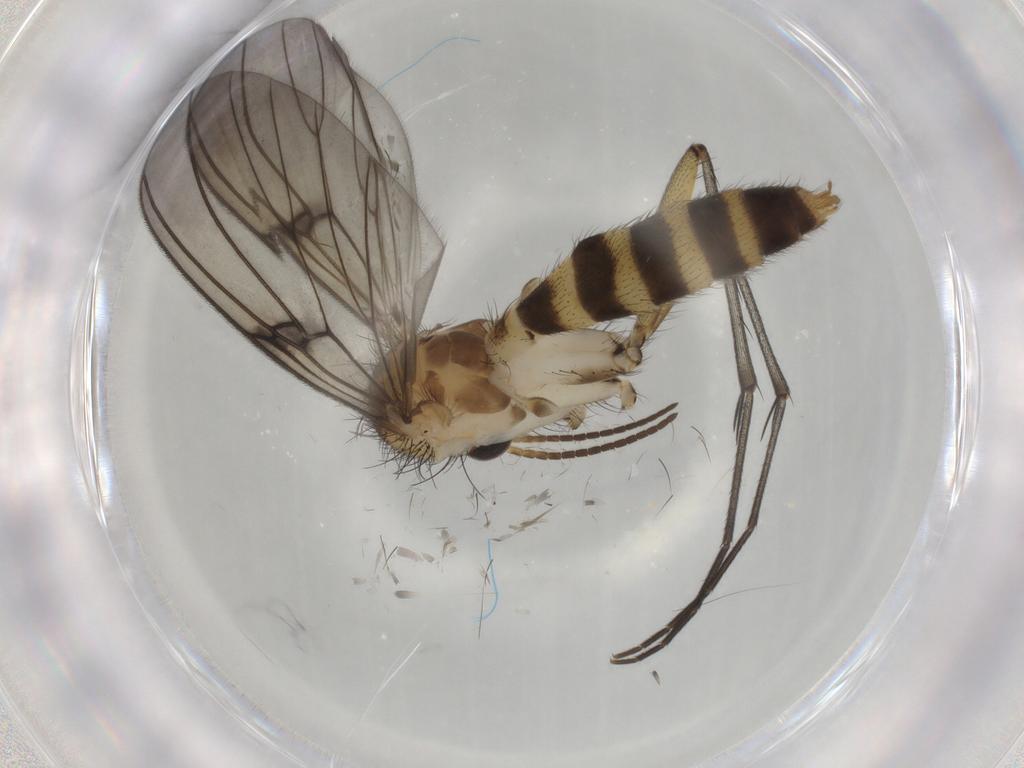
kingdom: Animalia
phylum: Arthropoda
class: Insecta
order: Diptera
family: Mycetophilidae
